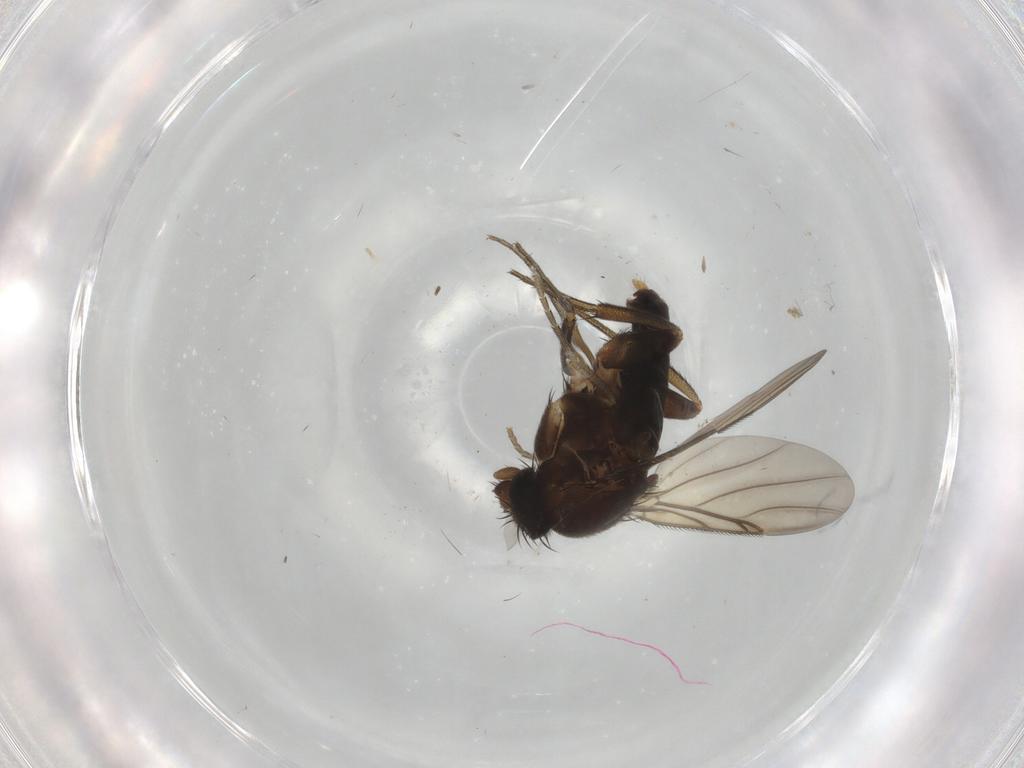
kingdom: Animalia
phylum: Arthropoda
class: Insecta
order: Diptera
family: Phoridae
